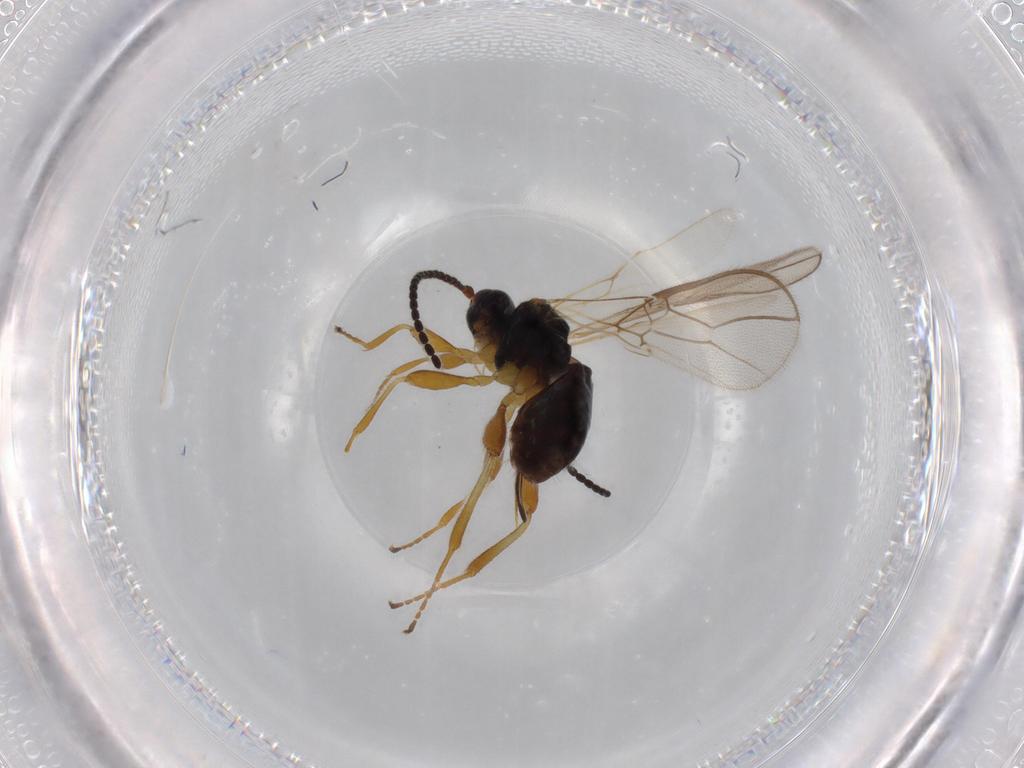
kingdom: Animalia
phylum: Arthropoda
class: Insecta
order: Hymenoptera
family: Braconidae
